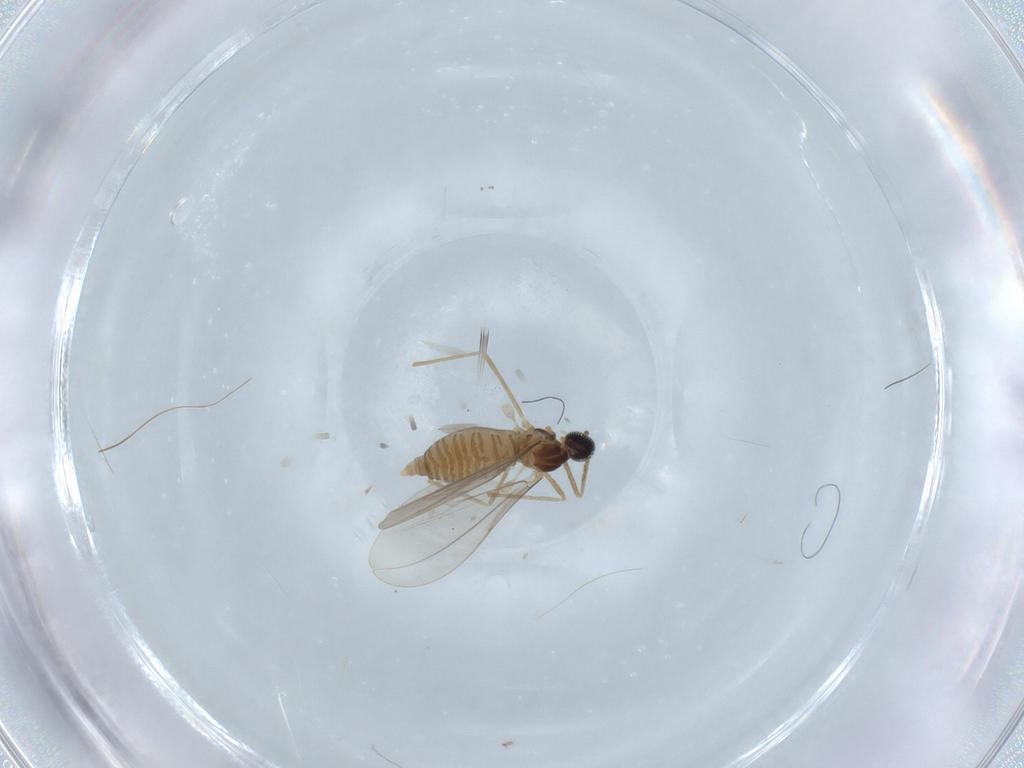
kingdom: Animalia
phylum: Arthropoda
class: Insecta
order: Diptera
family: Cecidomyiidae
